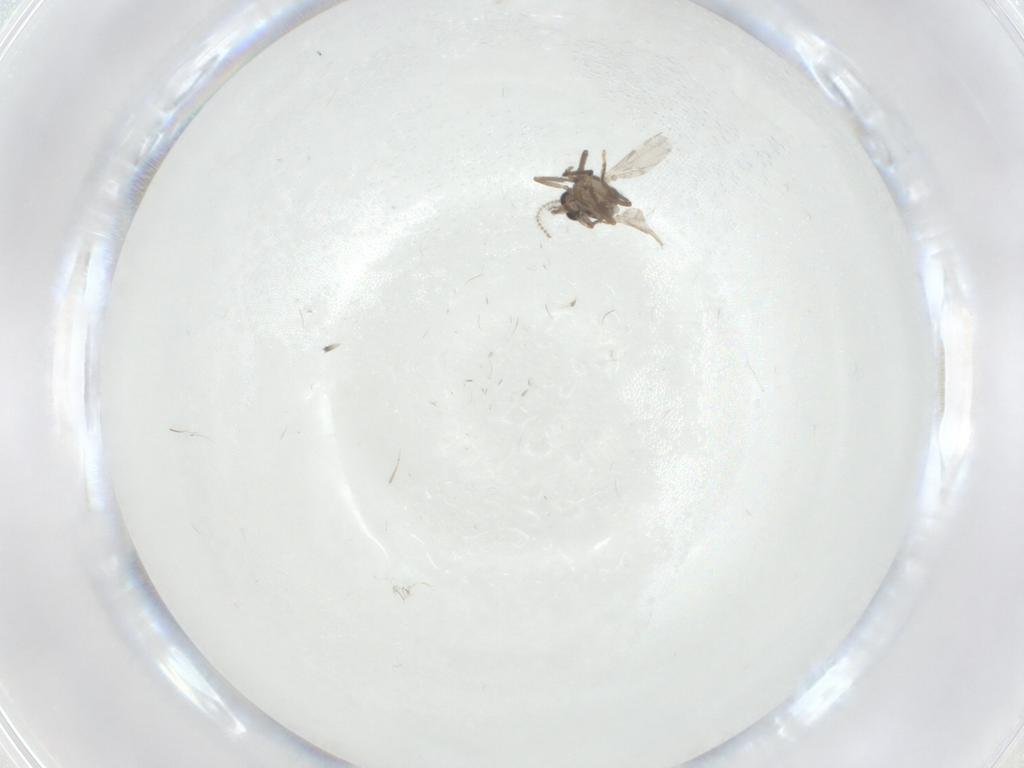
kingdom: Animalia
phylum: Arthropoda
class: Insecta
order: Diptera
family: Ceratopogonidae
